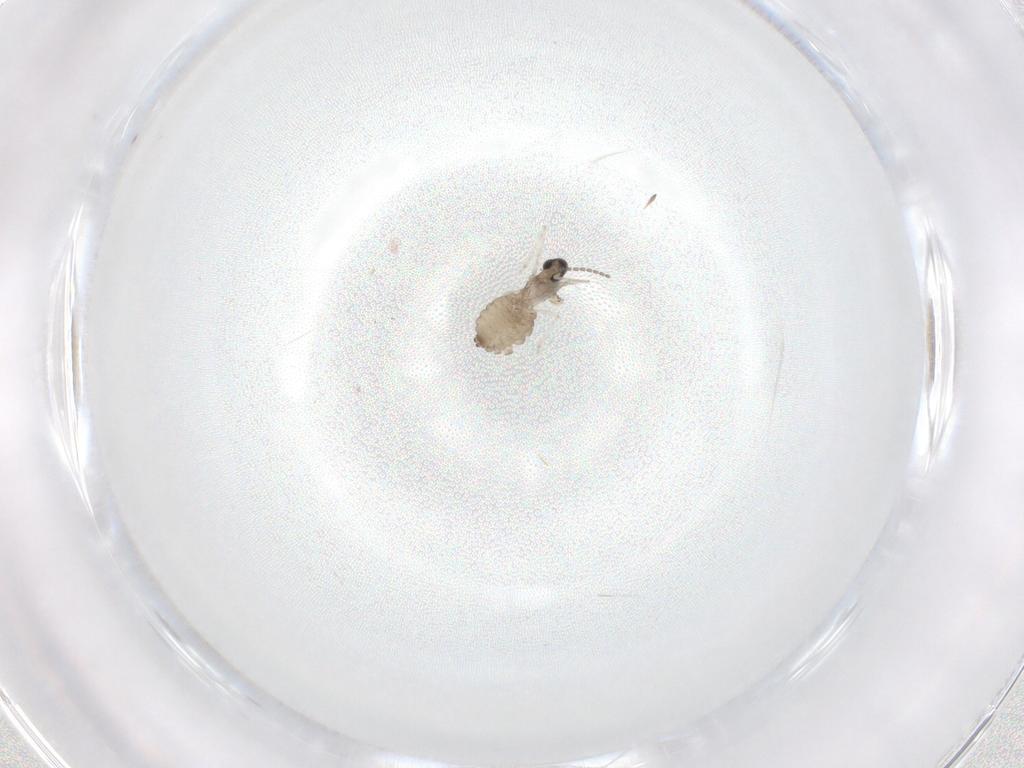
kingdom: Animalia
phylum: Arthropoda
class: Insecta
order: Diptera
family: Cecidomyiidae
